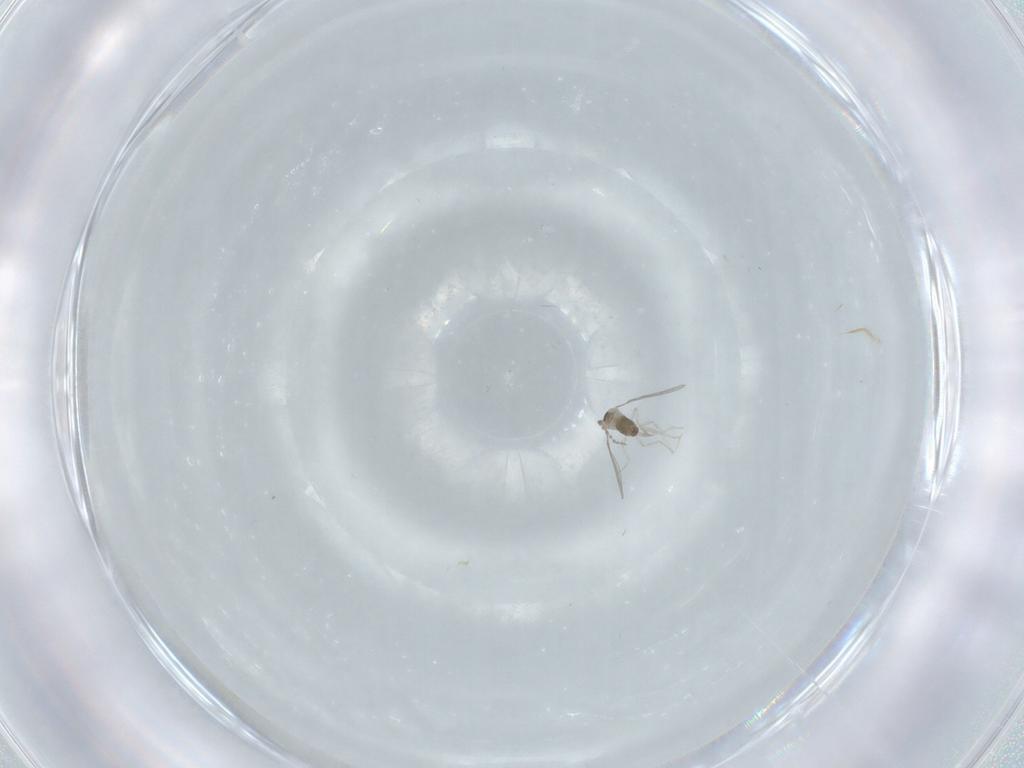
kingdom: Animalia
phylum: Arthropoda
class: Insecta
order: Diptera
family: Cecidomyiidae
